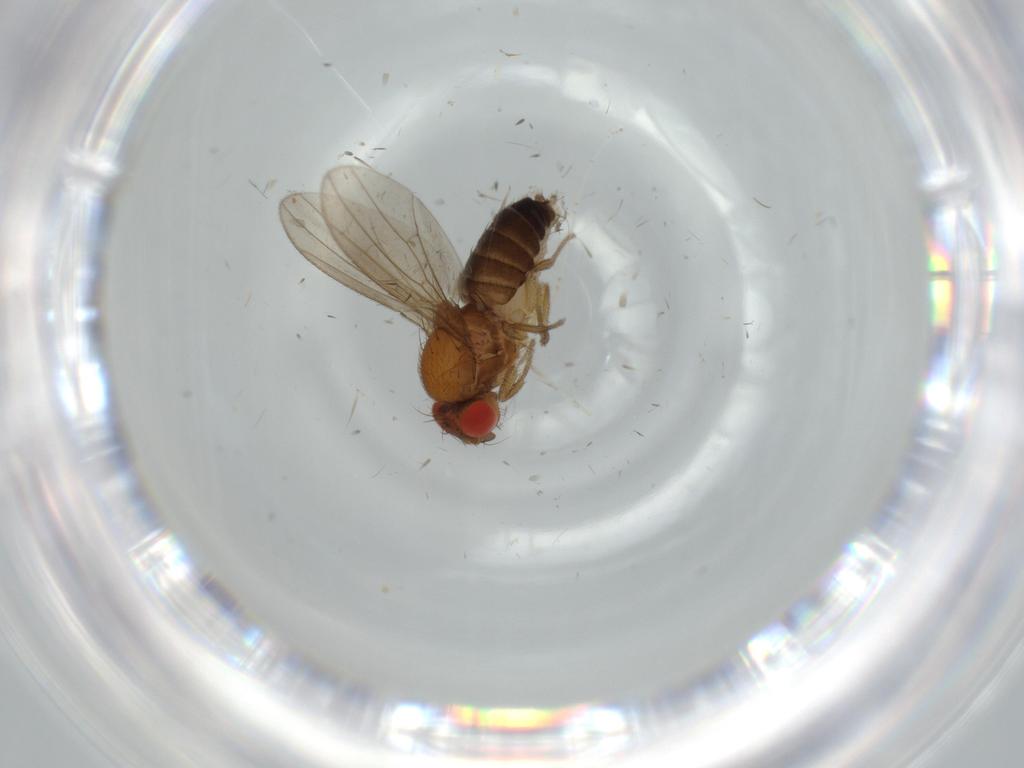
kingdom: Animalia
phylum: Arthropoda
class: Insecta
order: Diptera
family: Drosophilidae
